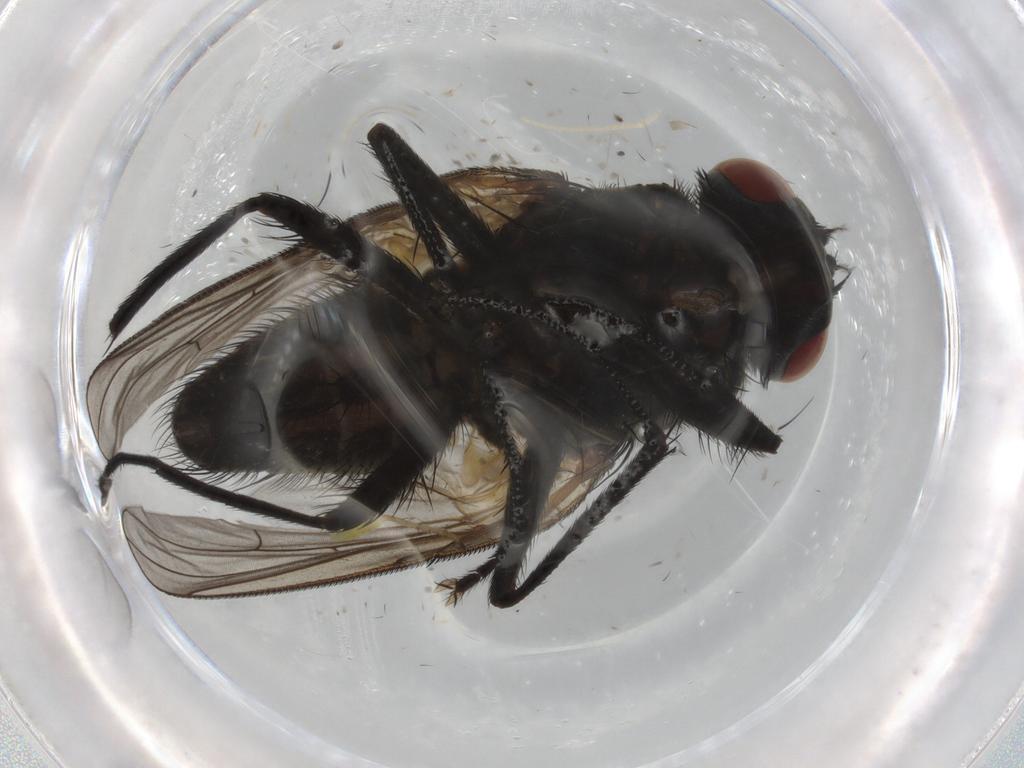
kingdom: Animalia
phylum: Arthropoda
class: Insecta
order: Diptera
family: Muscidae
